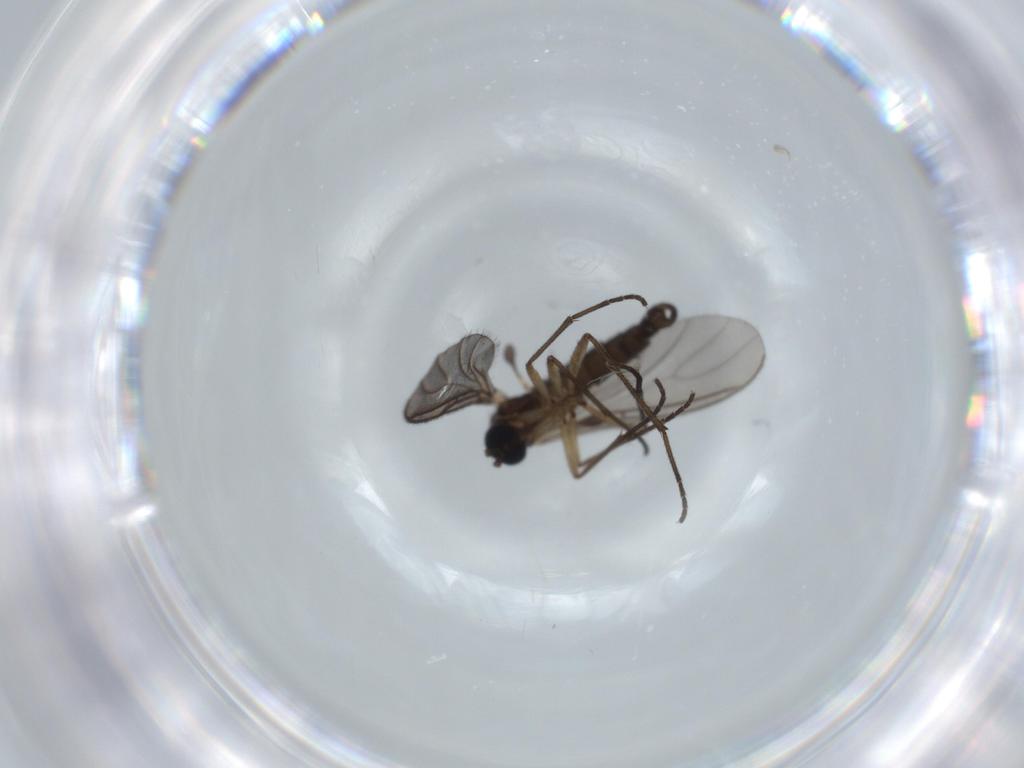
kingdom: Animalia
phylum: Arthropoda
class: Insecta
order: Diptera
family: Sciaridae
